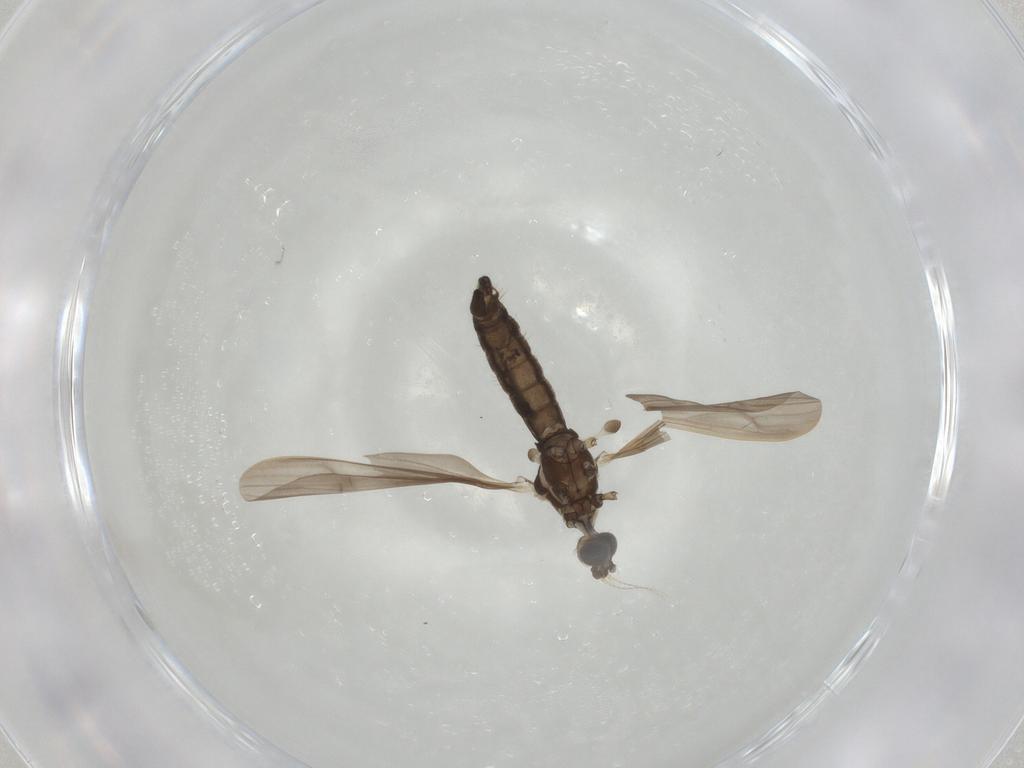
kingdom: Animalia
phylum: Arthropoda
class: Insecta
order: Diptera
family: Limoniidae
